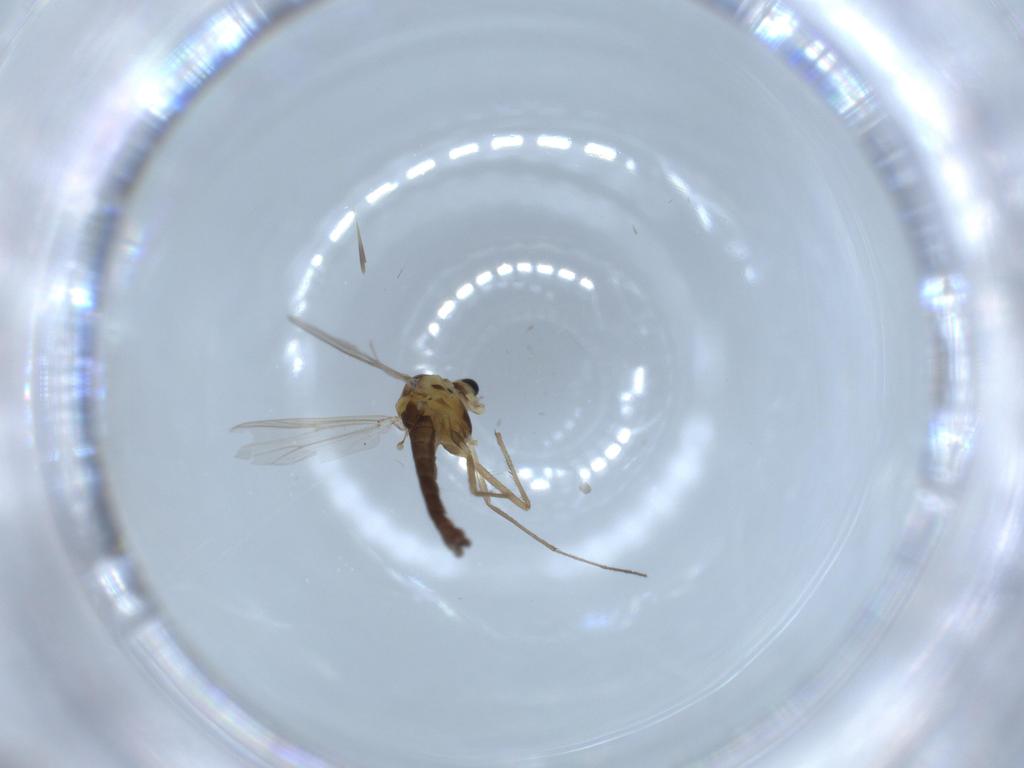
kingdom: Animalia
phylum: Arthropoda
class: Insecta
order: Diptera
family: Chironomidae
